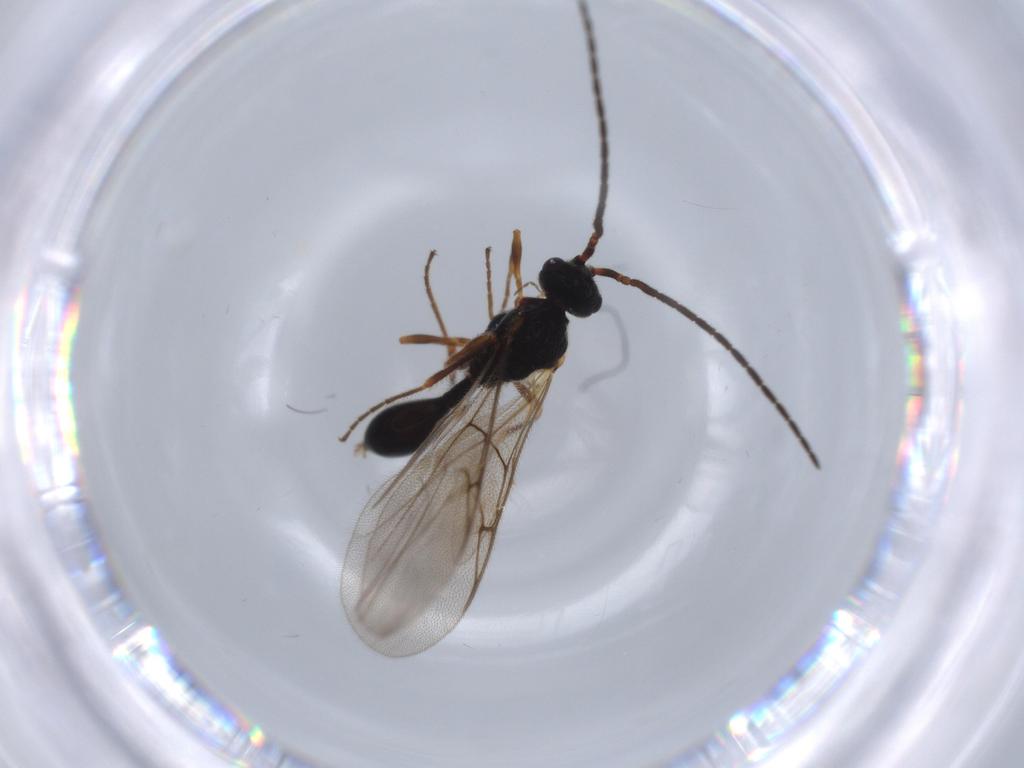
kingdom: Animalia
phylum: Arthropoda
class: Insecta
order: Hymenoptera
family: Diapriidae
